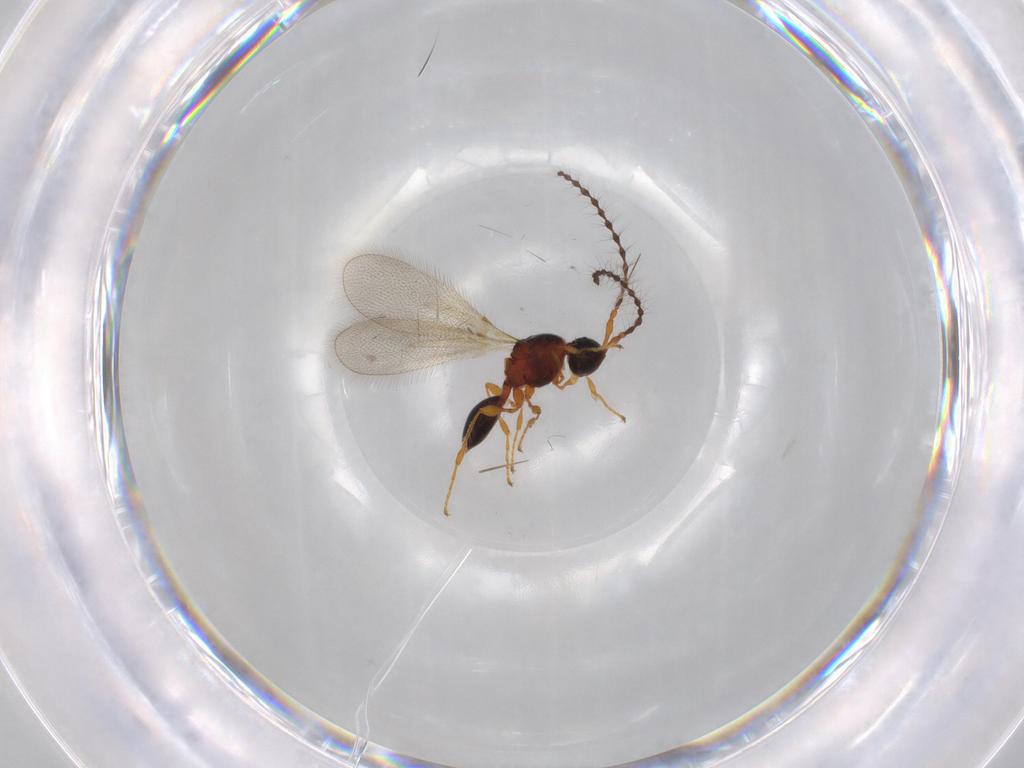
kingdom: Animalia
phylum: Arthropoda
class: Insecta
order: Hymenoptera
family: Diapriidae
